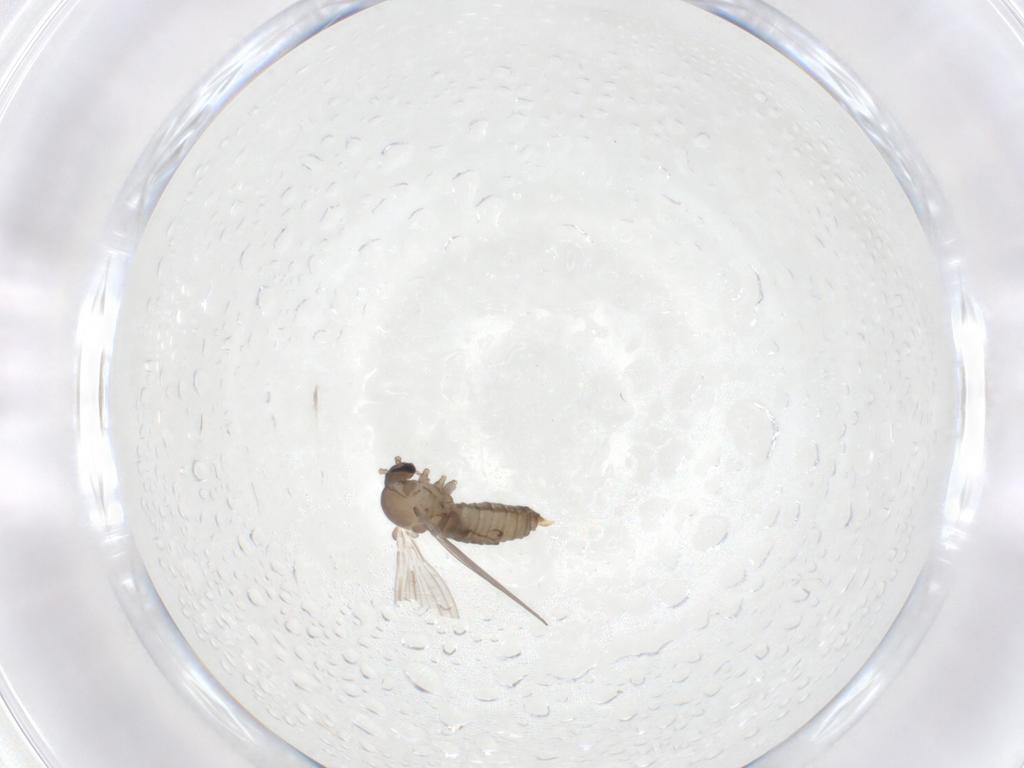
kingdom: Animalia
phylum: Arthropoda
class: Insecta
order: Diptera
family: Psychodidae
